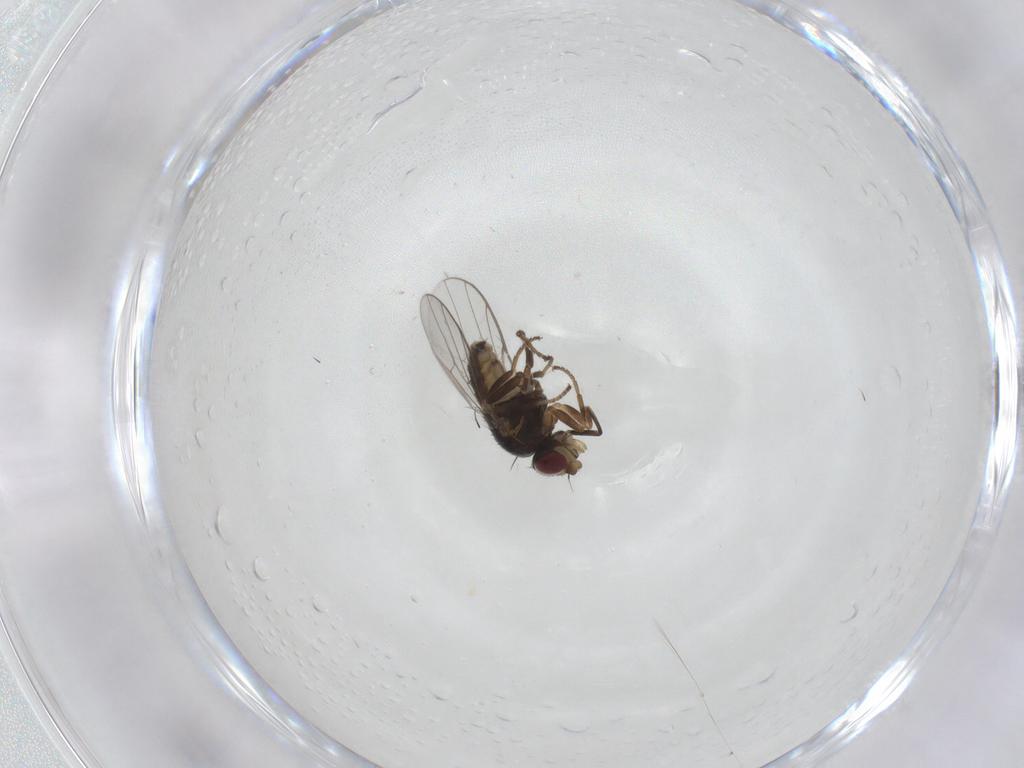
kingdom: Animalia
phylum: Arthropoda
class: Insecta
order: Diptera
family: Chloropidae
